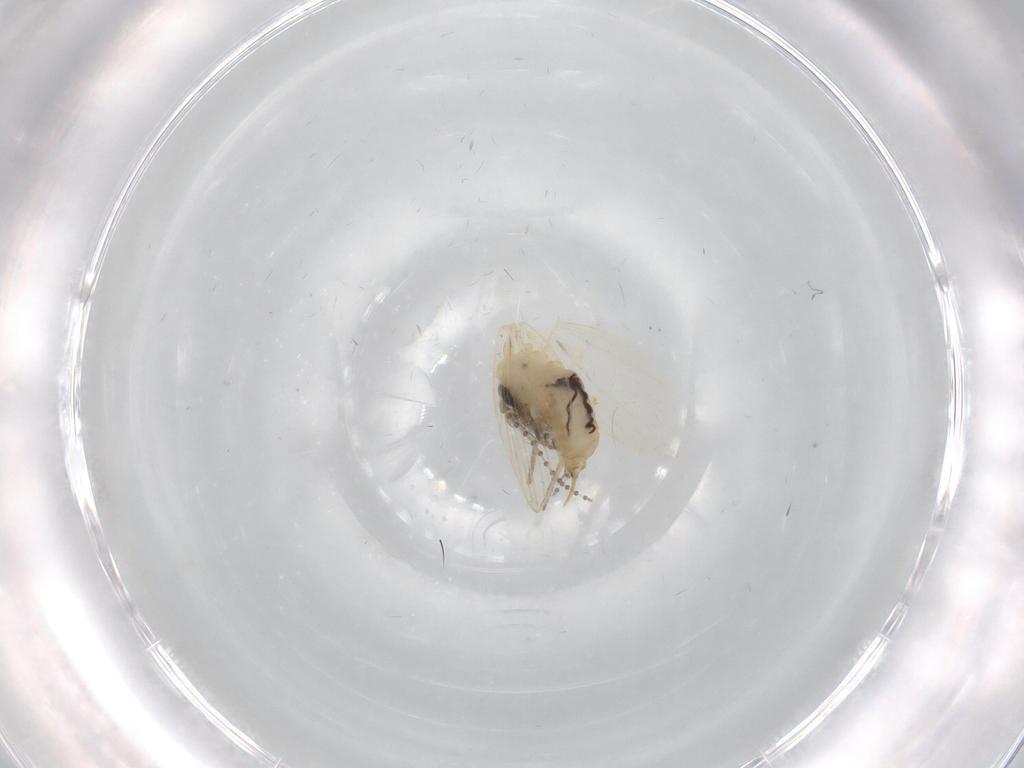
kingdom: Animalia
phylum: Arthropoda
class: Insecta
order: Diptera
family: Psychodidae
